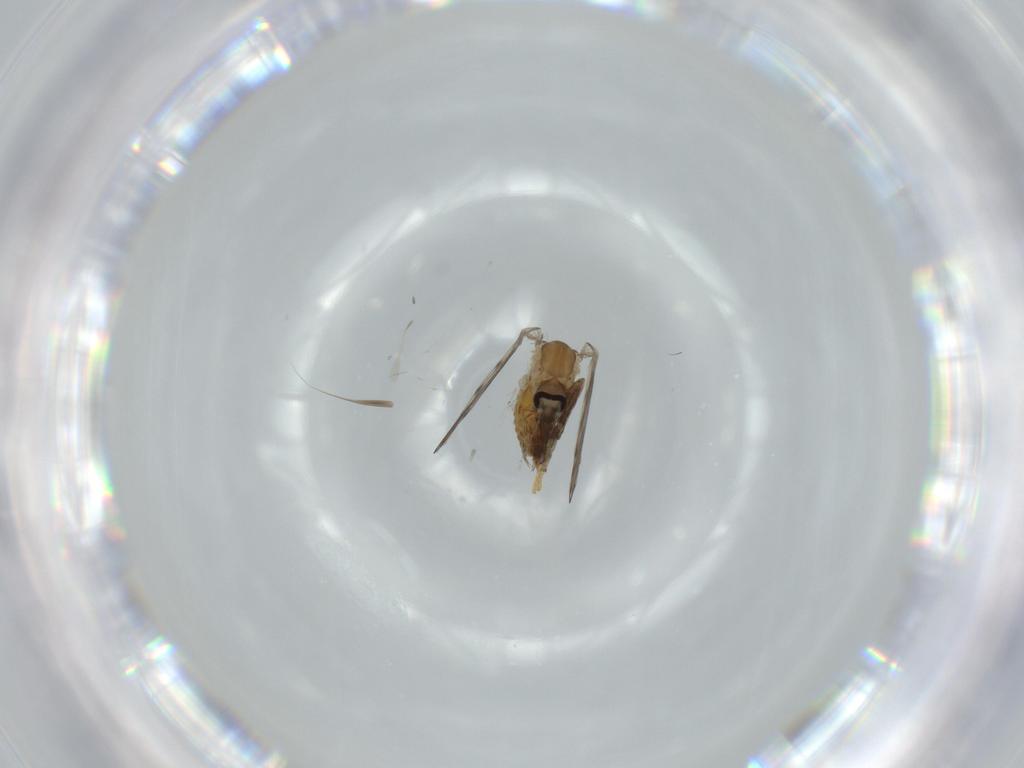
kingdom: Animalia
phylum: Arthropoda
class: Insecta
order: Diptera
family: Psychodidae
